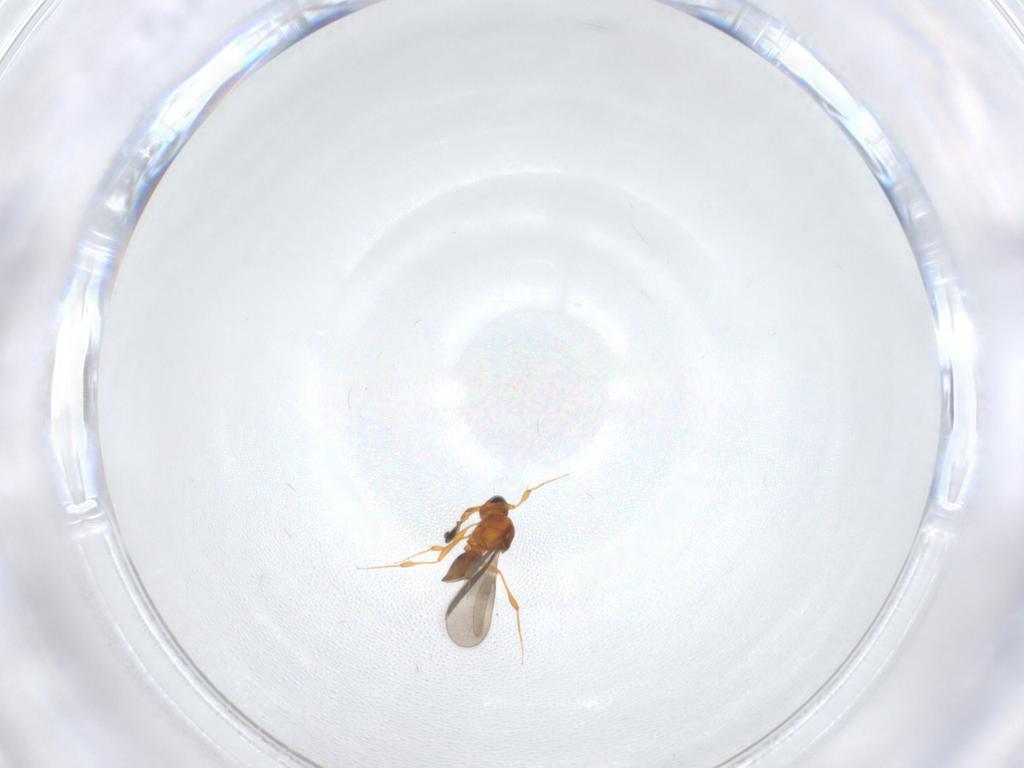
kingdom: Animalia
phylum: Arthropoda
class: Insecta
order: Hymenoptera
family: Platygastridae
